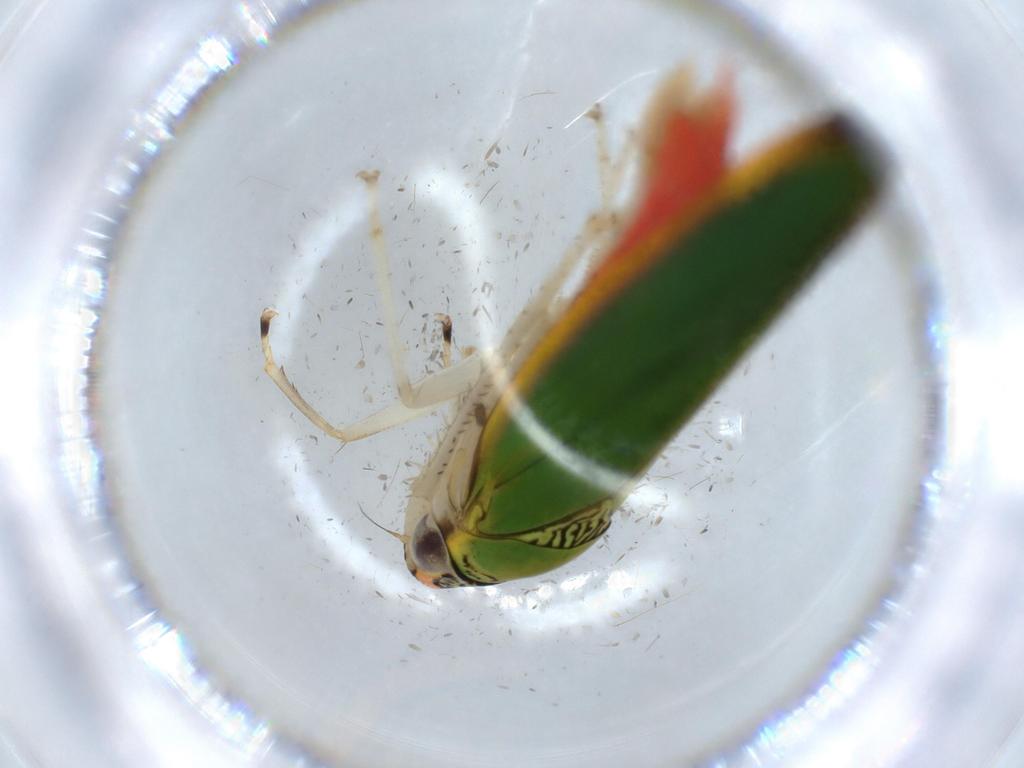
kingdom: Animalia
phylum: Arthropoda
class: Insecta
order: Hemiptera
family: Cicadellidae
